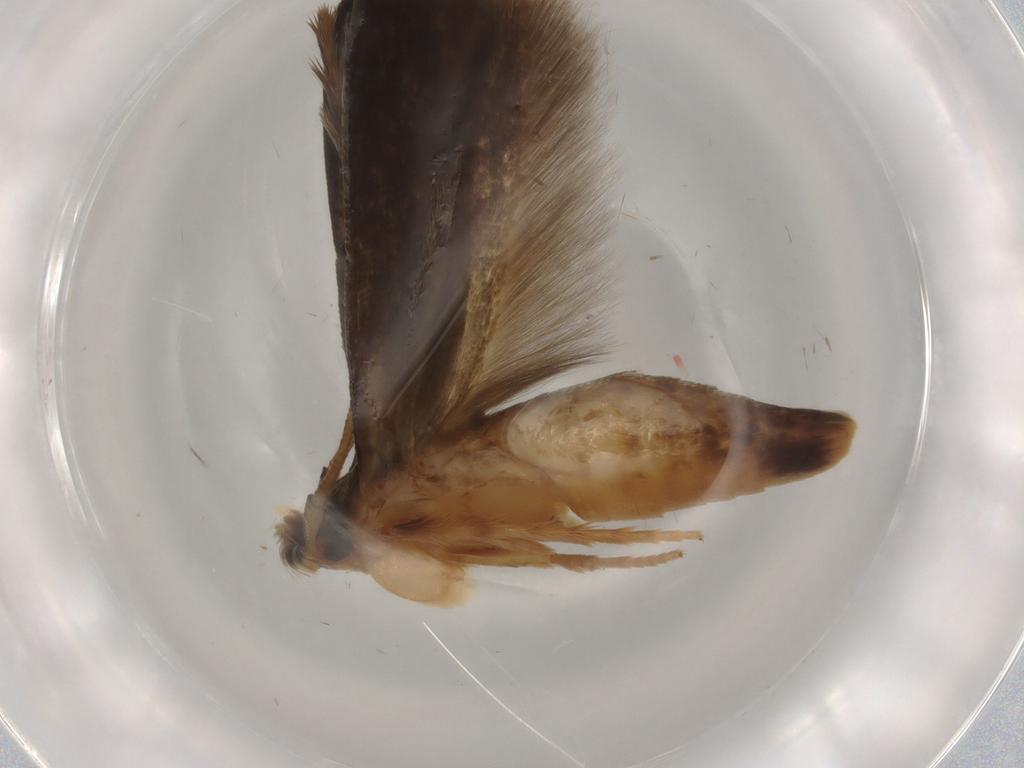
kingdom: Animalia
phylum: Arthropoda
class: Insecta
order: Lepidoptera
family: Tineidae
